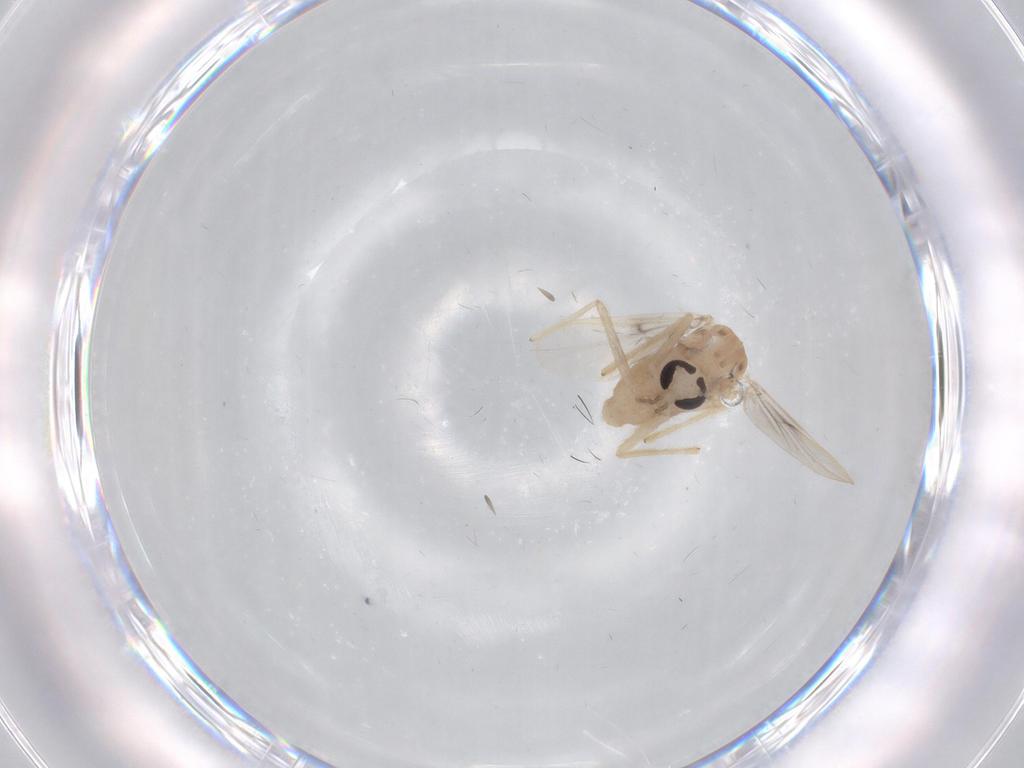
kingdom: Animalia
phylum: Arthropoda
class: Insecta
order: Diptera
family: Chironomidae
